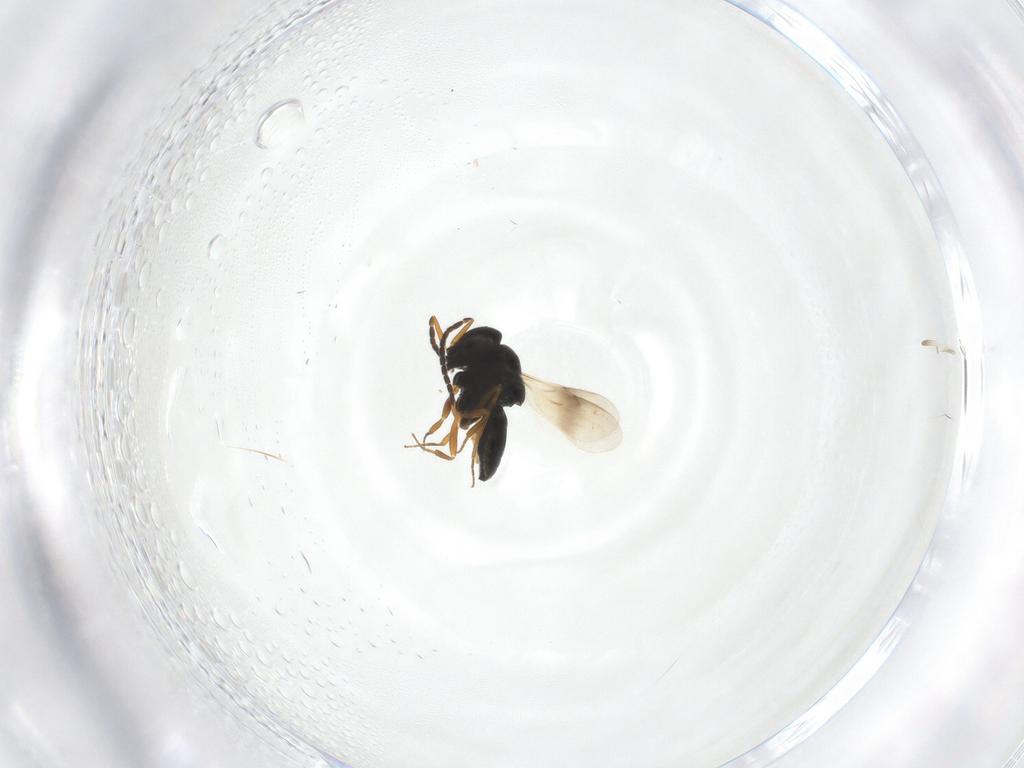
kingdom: Animalia
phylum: Arthropoda
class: Insecta
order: Hymenoptera
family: Scelionidae
